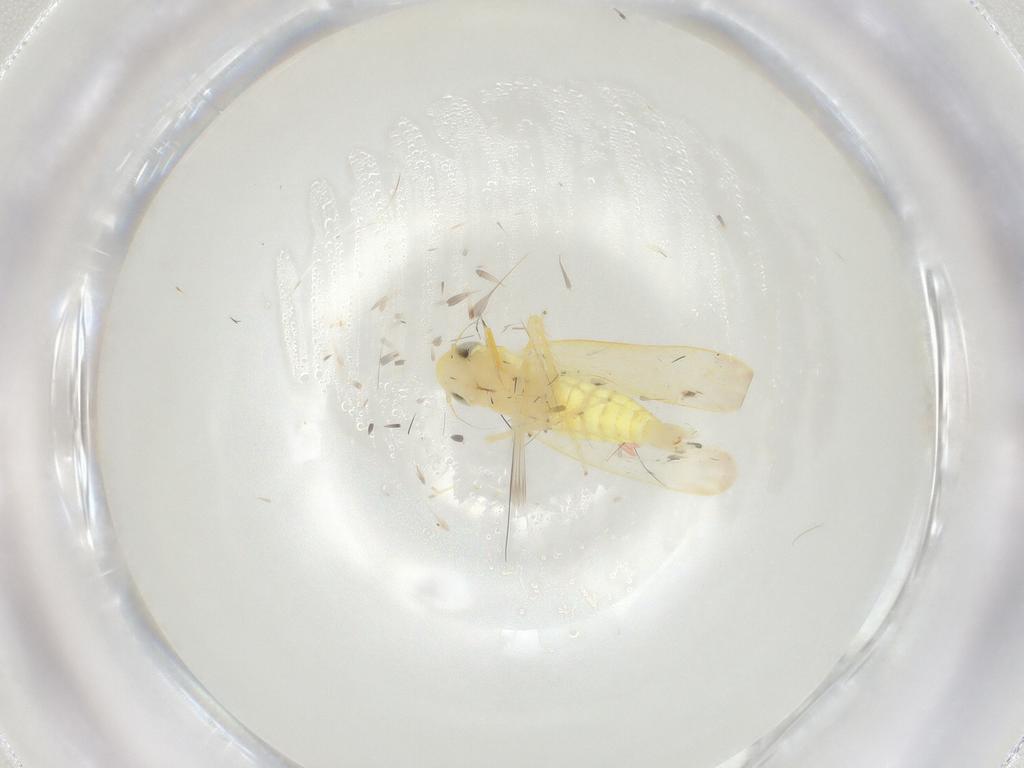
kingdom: Animalia
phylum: Arthropoda
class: Insecta
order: Hemiptera
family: Cicadellidae
